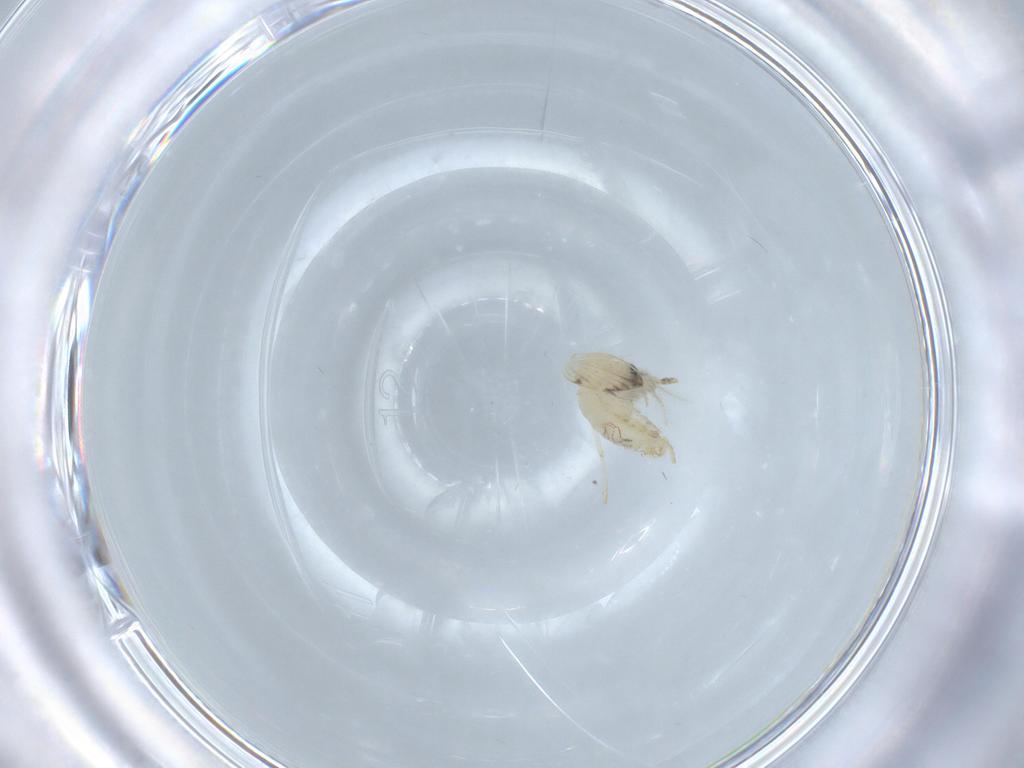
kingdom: Animalia
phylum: Arthropoda
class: Insecta
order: Diptera
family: Psychodidae
